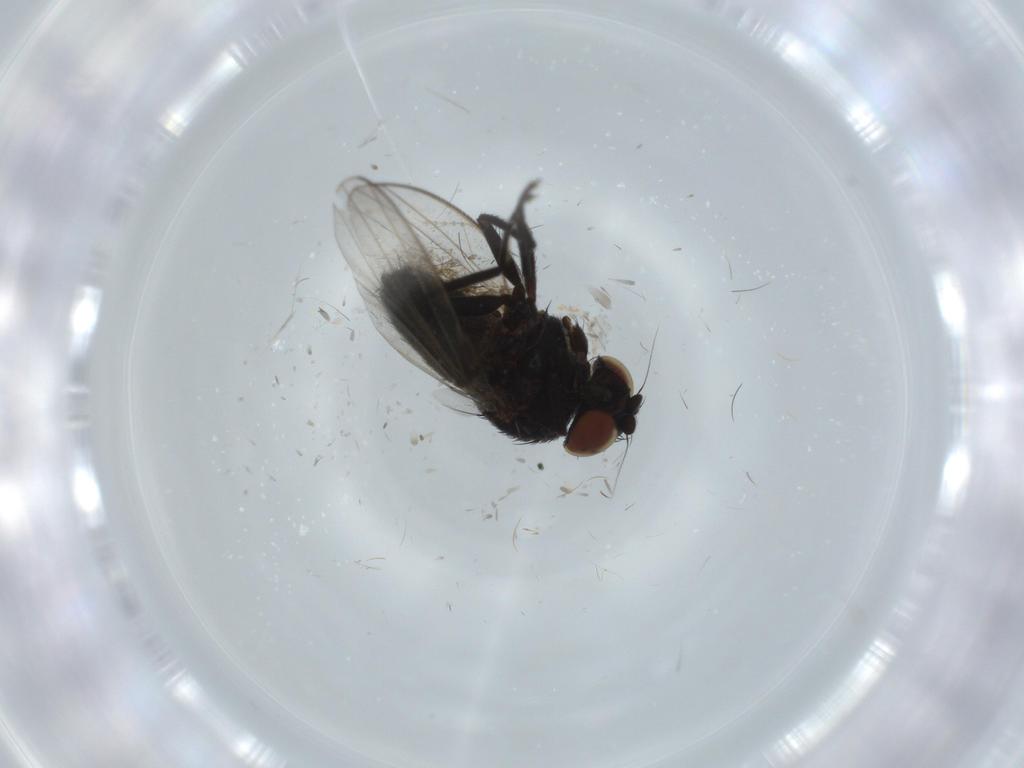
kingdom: Animalia
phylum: Arthropoda
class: Insecta
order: Diptera
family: Milichiidae
